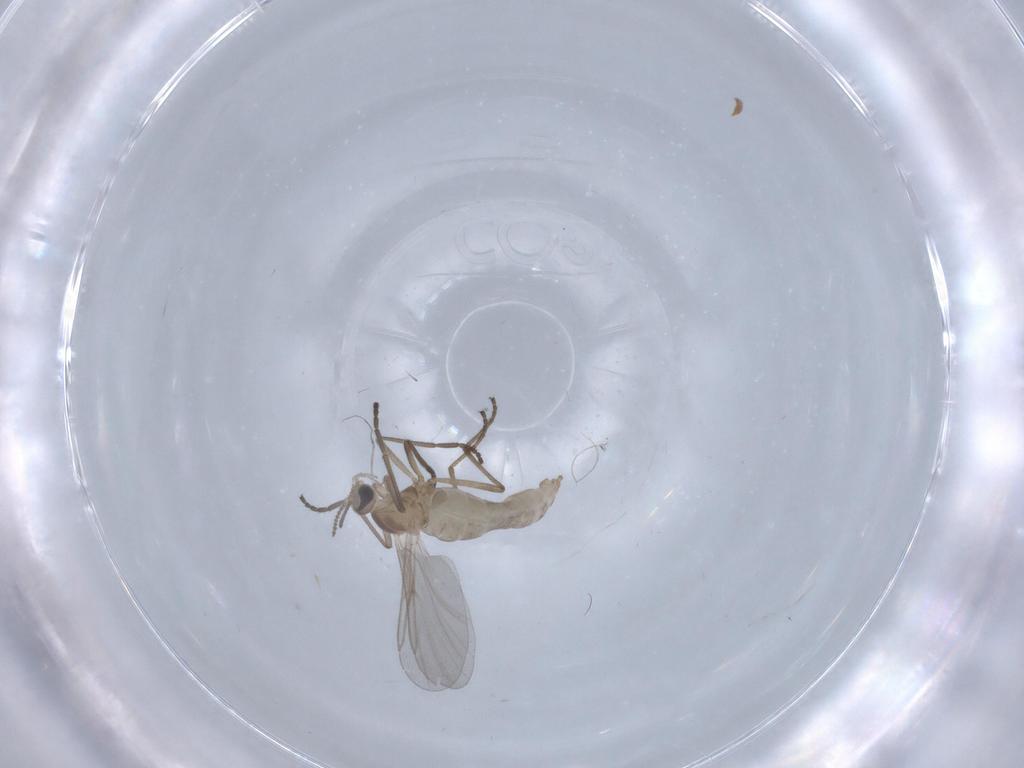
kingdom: Animalia
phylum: Arthropoda
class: Insecta
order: Diptera
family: Cecidomyiidae
